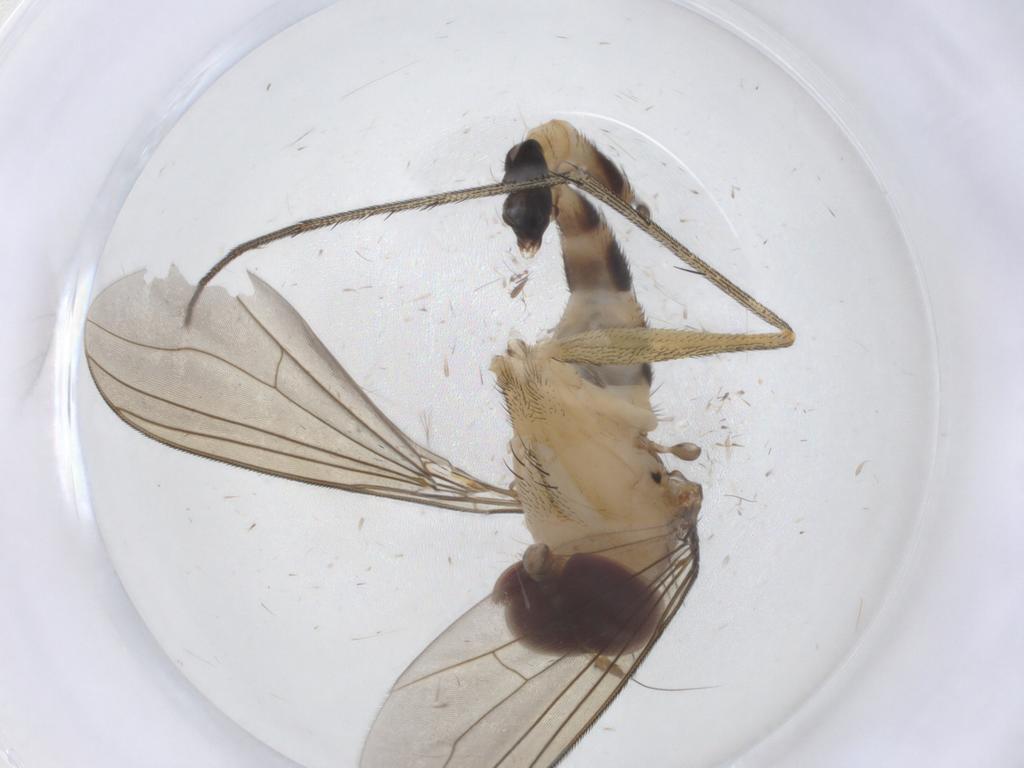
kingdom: Animalia
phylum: Arthropoda
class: Insecta
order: Diptera
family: Dolichopodidae
